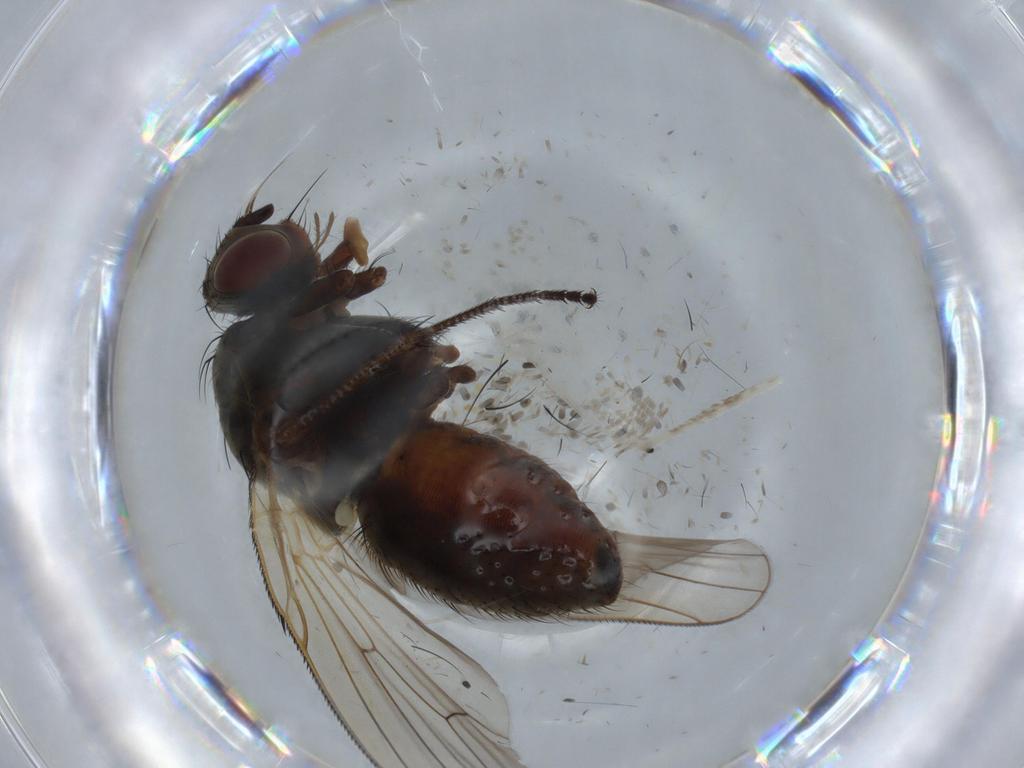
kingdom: Animalia
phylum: Arthropoda
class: Insecta
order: Diptera
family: Anthomyiidae
